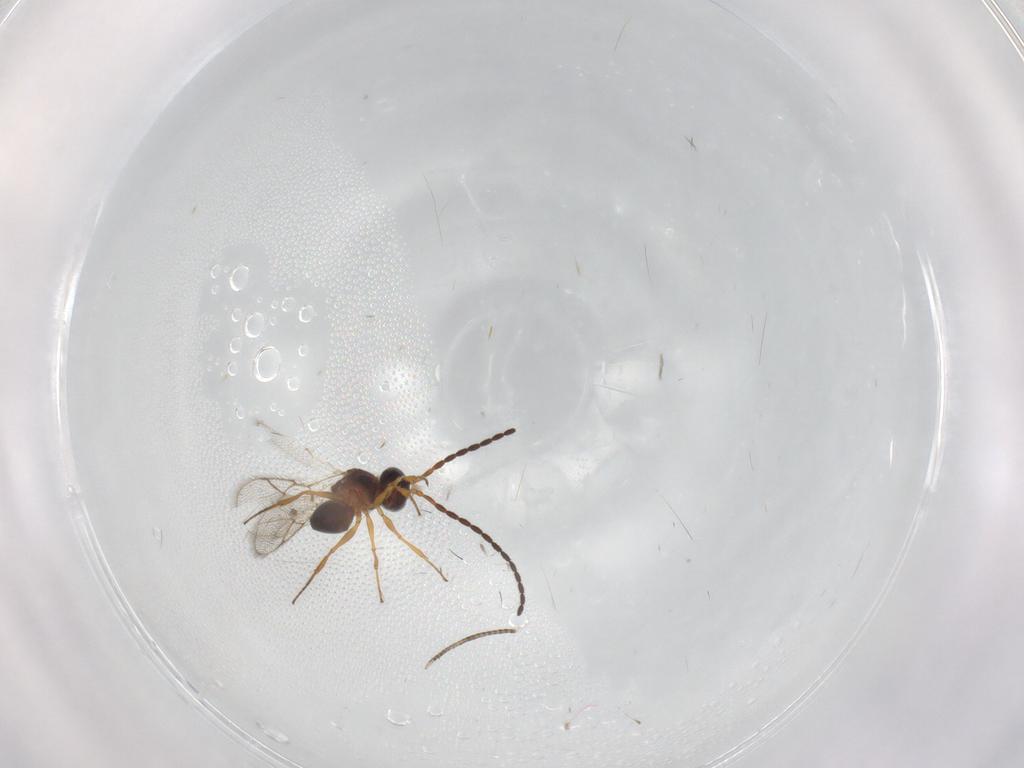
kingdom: Animalia
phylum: Arthropoda
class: Insecta
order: Hymenoptera
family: Figitidae
